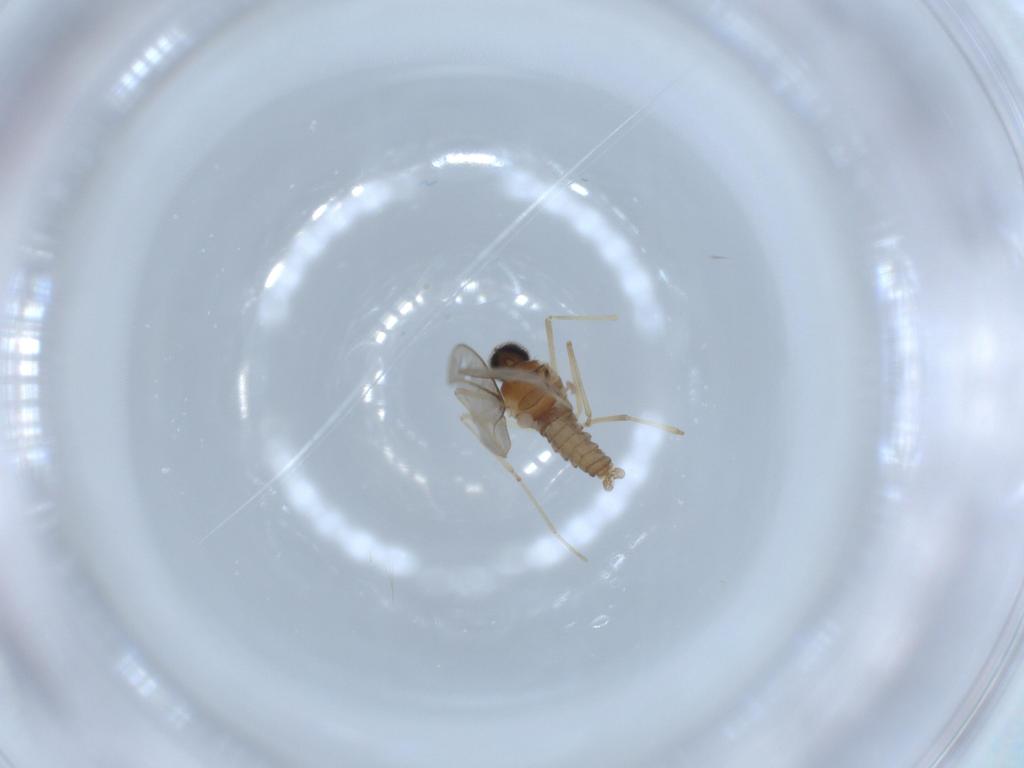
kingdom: Animalia
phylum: Arthropoda
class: Insecta
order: Diptera
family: Cecidomyiidae
